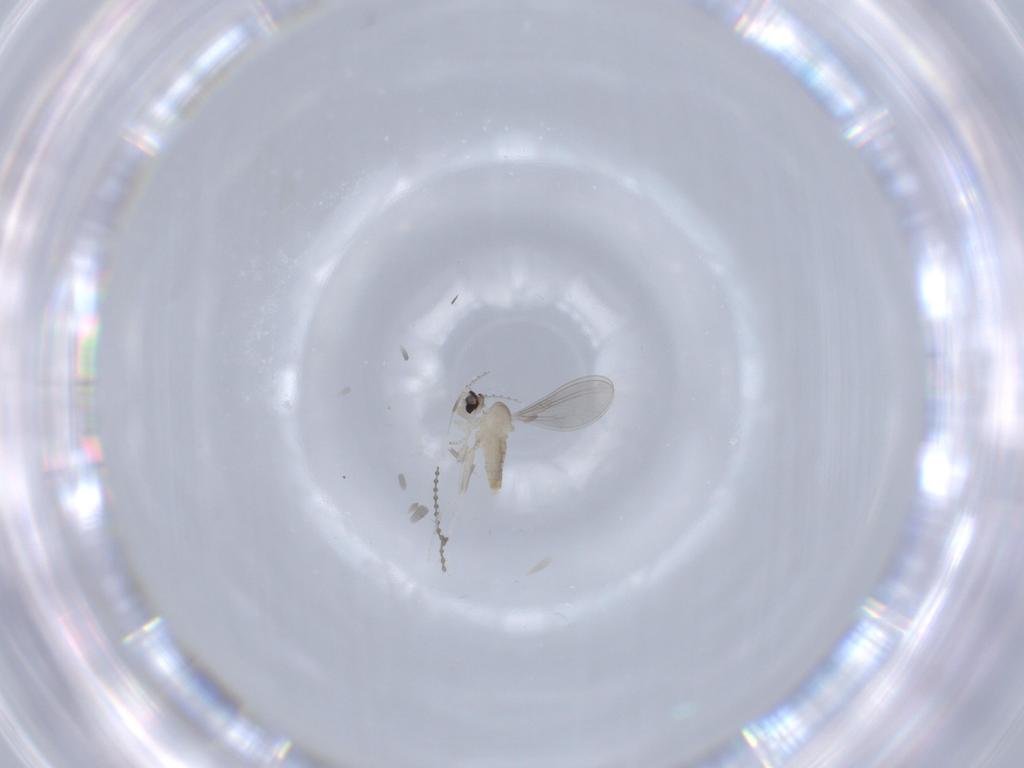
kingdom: Animalia
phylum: Arthropoda
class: Insecta
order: Diptera
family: Cecidomyiidae
